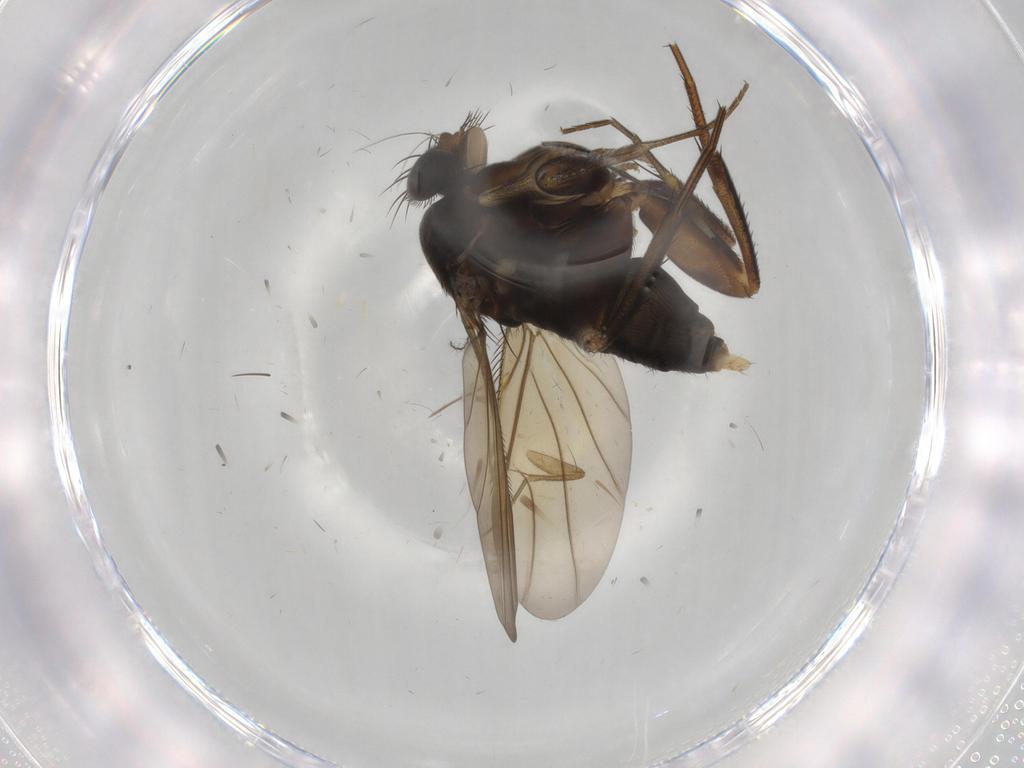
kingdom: Animalia
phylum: Arthropoda
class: Insecta
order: Diptera
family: Phoridae
